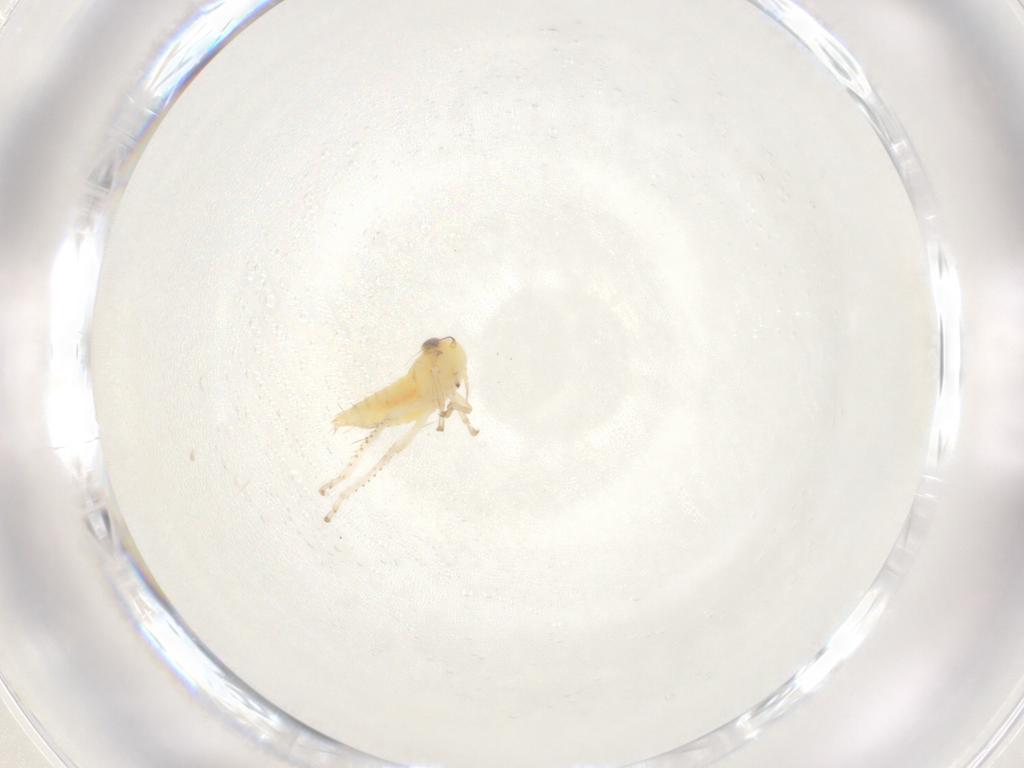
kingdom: Animalia
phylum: Arthropoda
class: Insecta
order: Hemiptera
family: Cicadellidae
